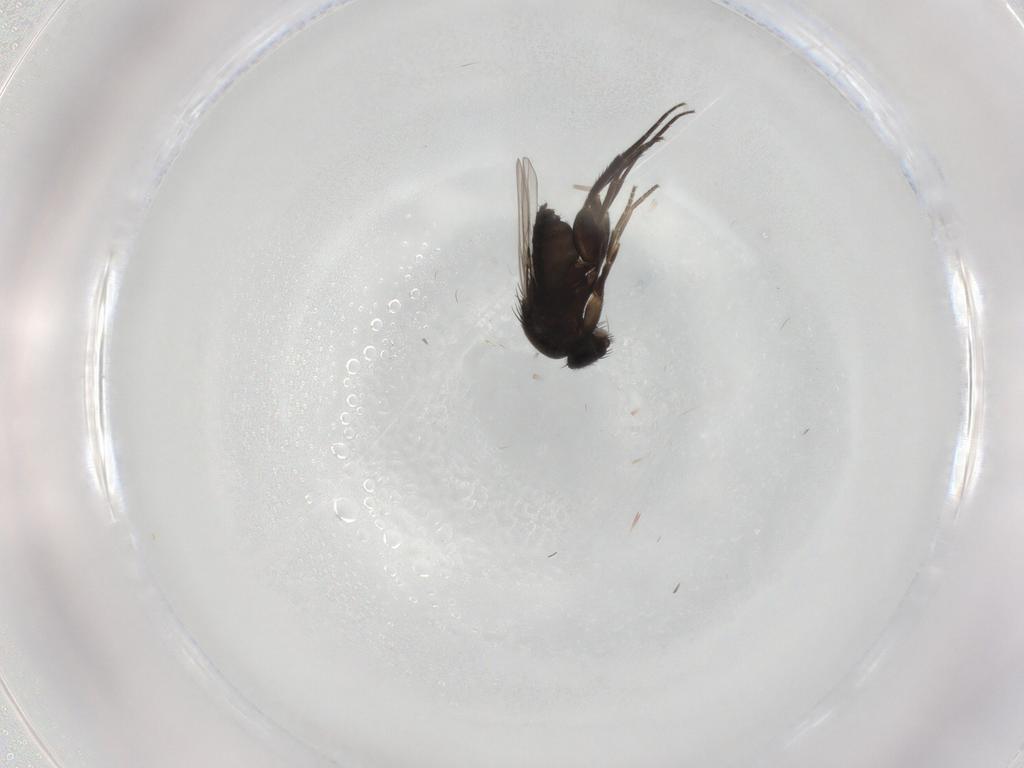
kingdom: Animalia
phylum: Arthropoda
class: Insecta
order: Diptera
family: Phoridae
